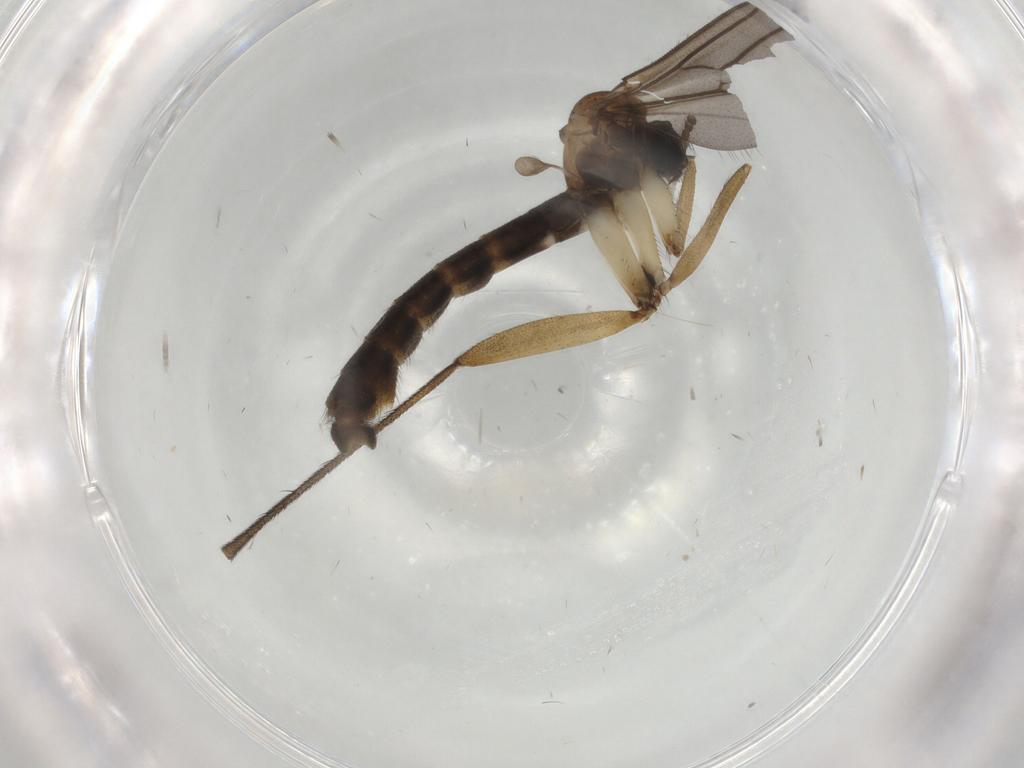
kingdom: Animalia
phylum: Arthropoda
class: Insecta
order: Diptera
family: Ditomyiidae
